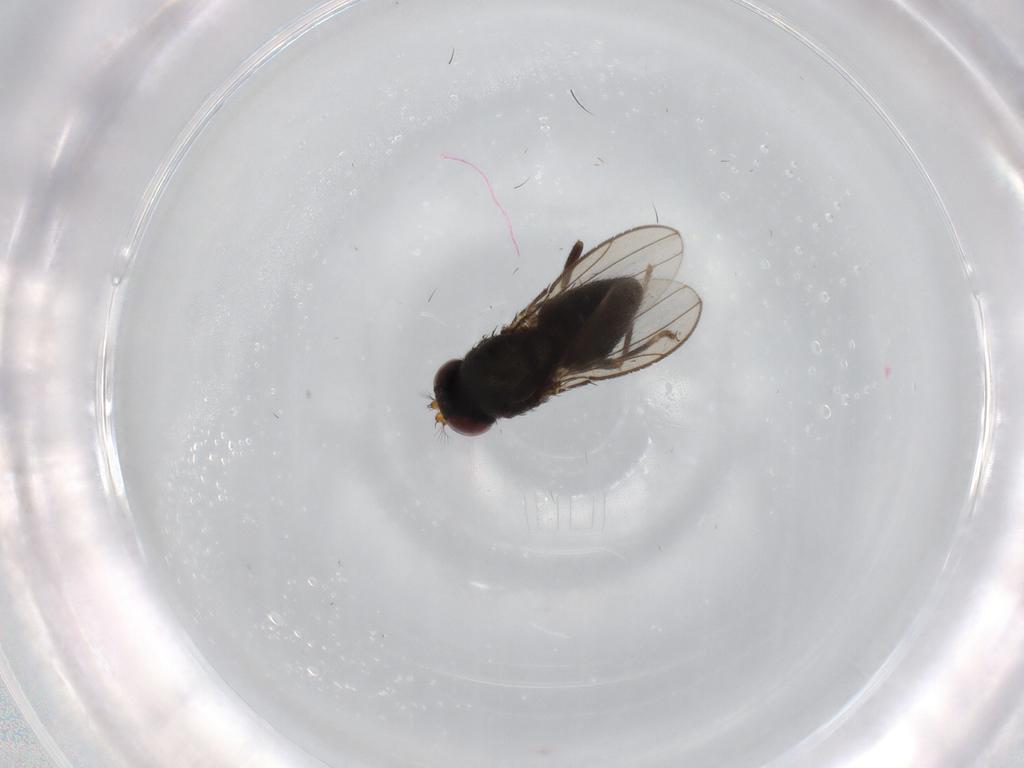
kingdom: Animalia
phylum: Arthropoda
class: Insecta
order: Diptera
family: Ephydridae
